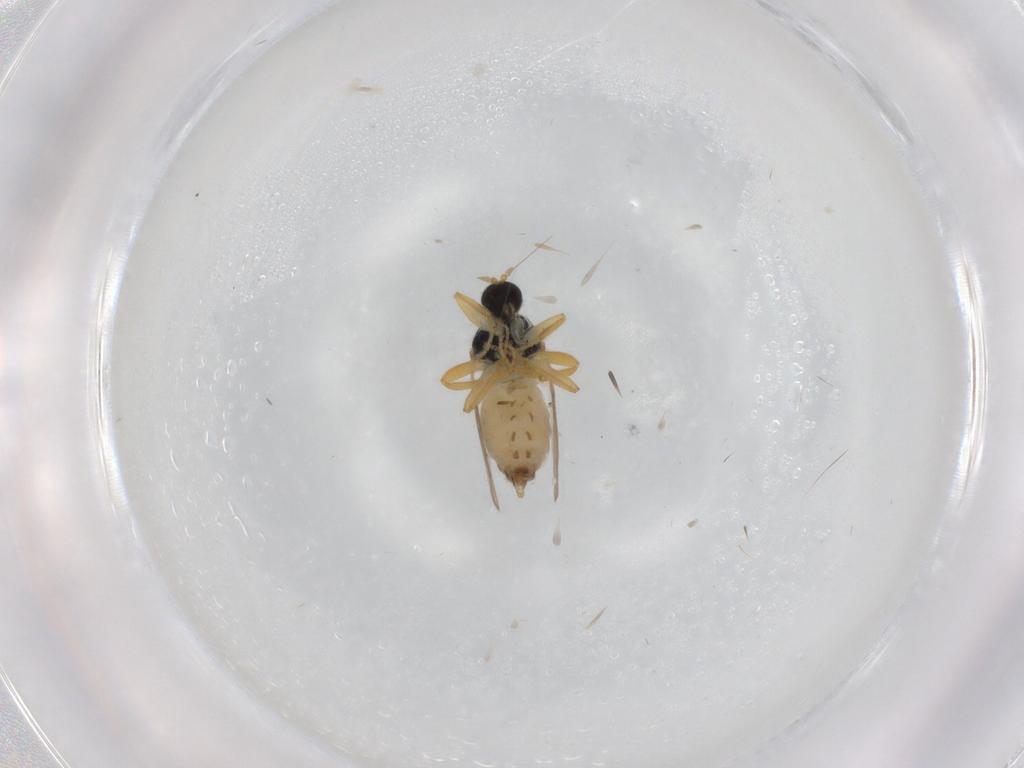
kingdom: Animalia
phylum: Arthropoda
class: Insecta
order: Diptera
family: Hybotidae
